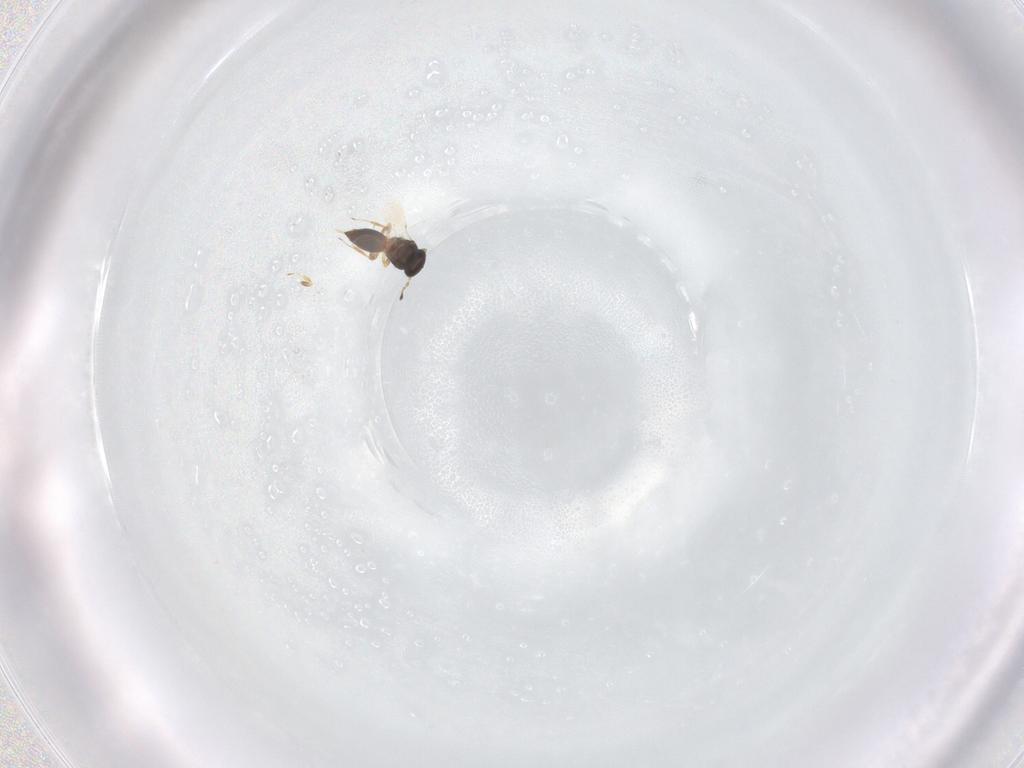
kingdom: Animalia
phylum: Arthropoda
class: Insecta
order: Hymenoptera
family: Platygastridae
